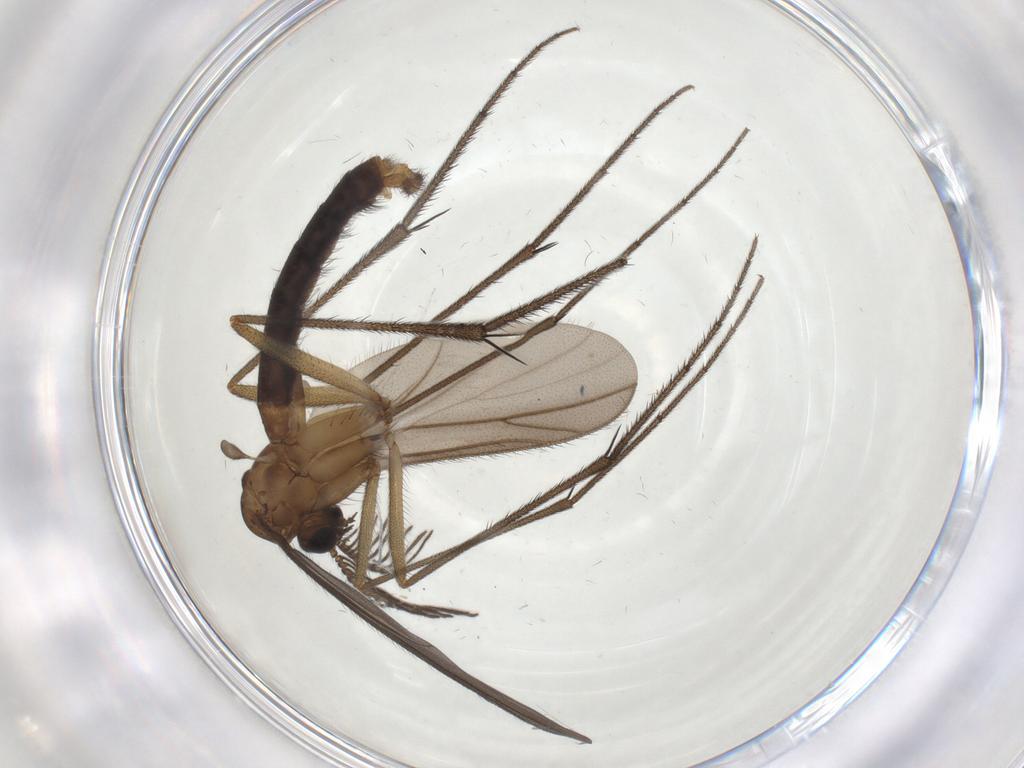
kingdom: Animalia
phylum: Arthropoda
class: Insecta
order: Diptera
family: Ditomyiidae
